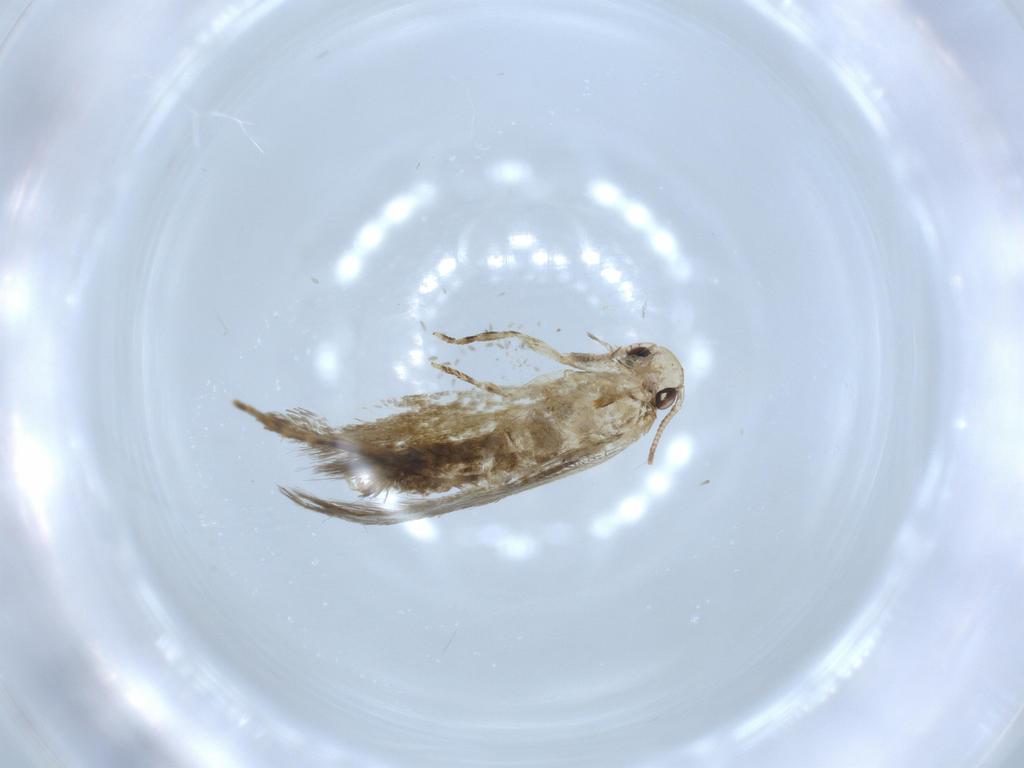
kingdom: Animalia
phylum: Arthropoda
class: Insecta
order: Lepidoptera
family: Tineidae
